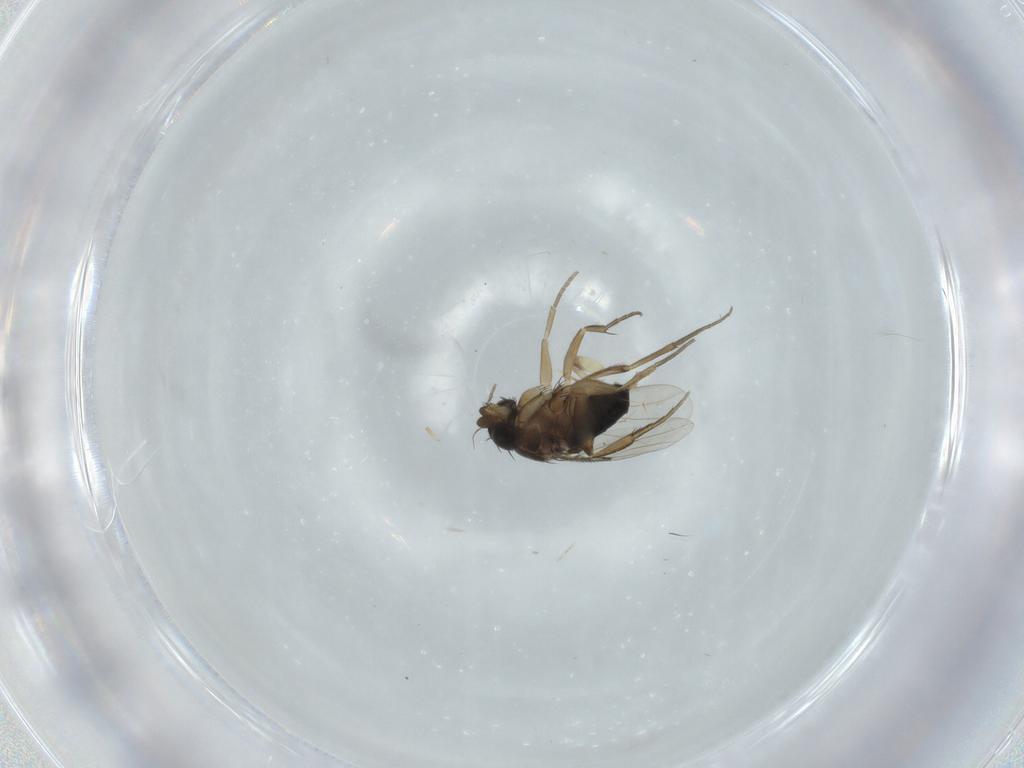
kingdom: Animalia
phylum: Arthropoda
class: Insecta
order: Diptera
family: Scatopsidae
